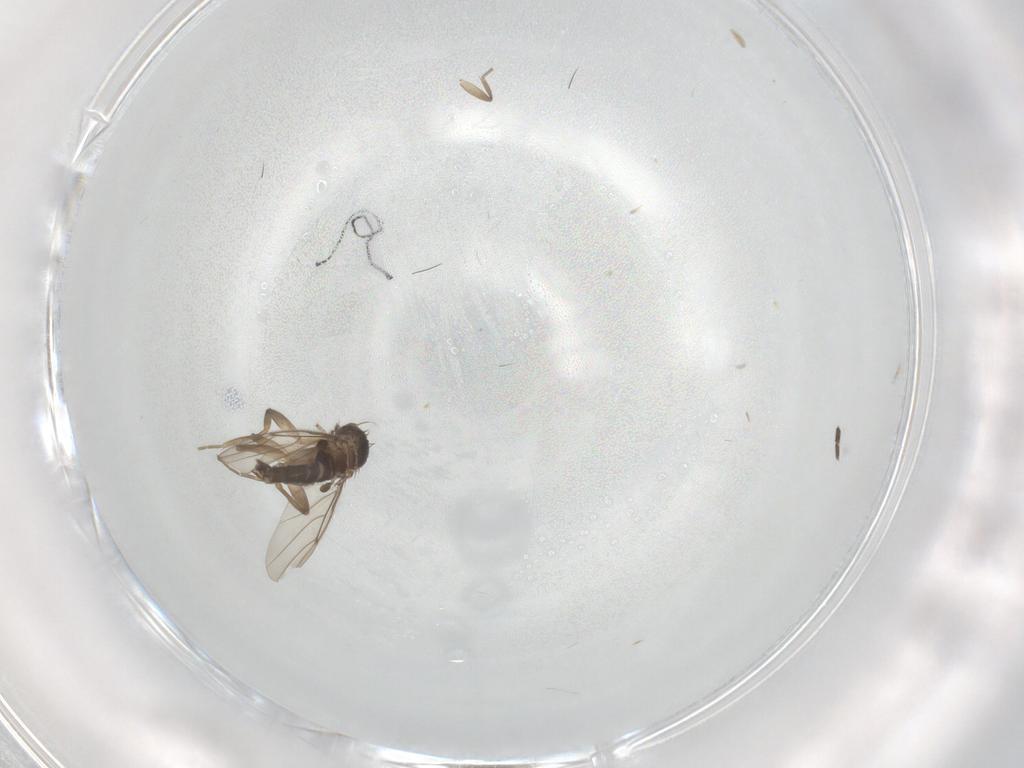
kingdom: Animalia
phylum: Arthropoda
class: Insecta
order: Diptera
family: Phoridae
